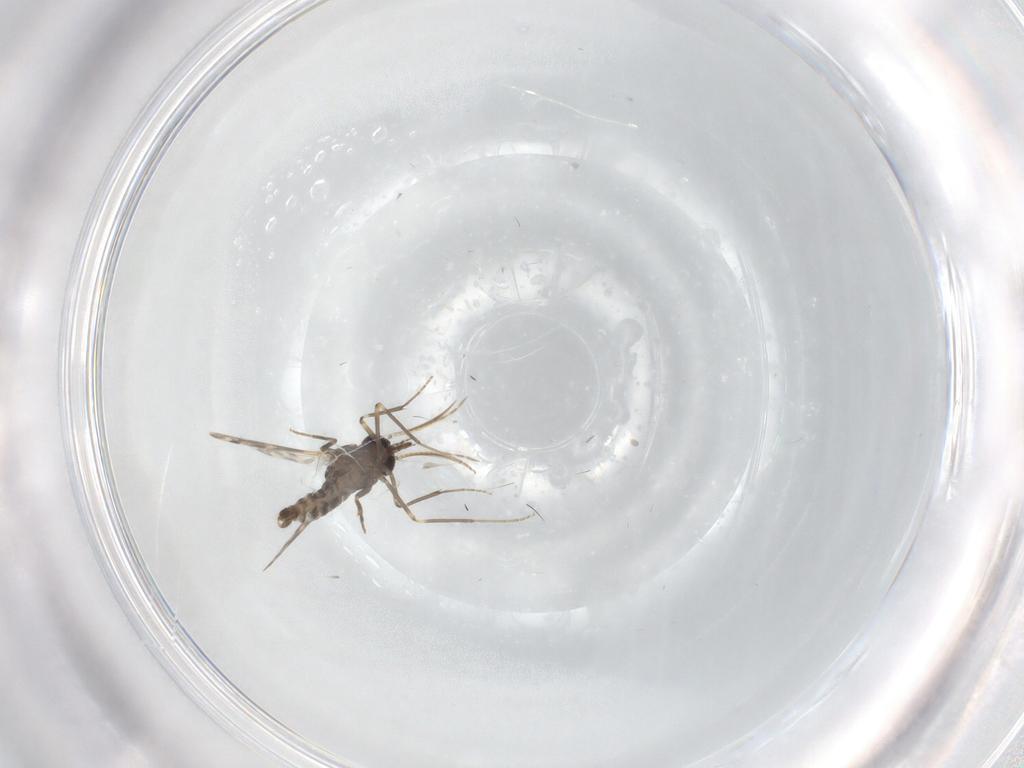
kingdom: Animalia
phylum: Arthropoda
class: Insecta
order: Diptera
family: Ceratopogonidae
